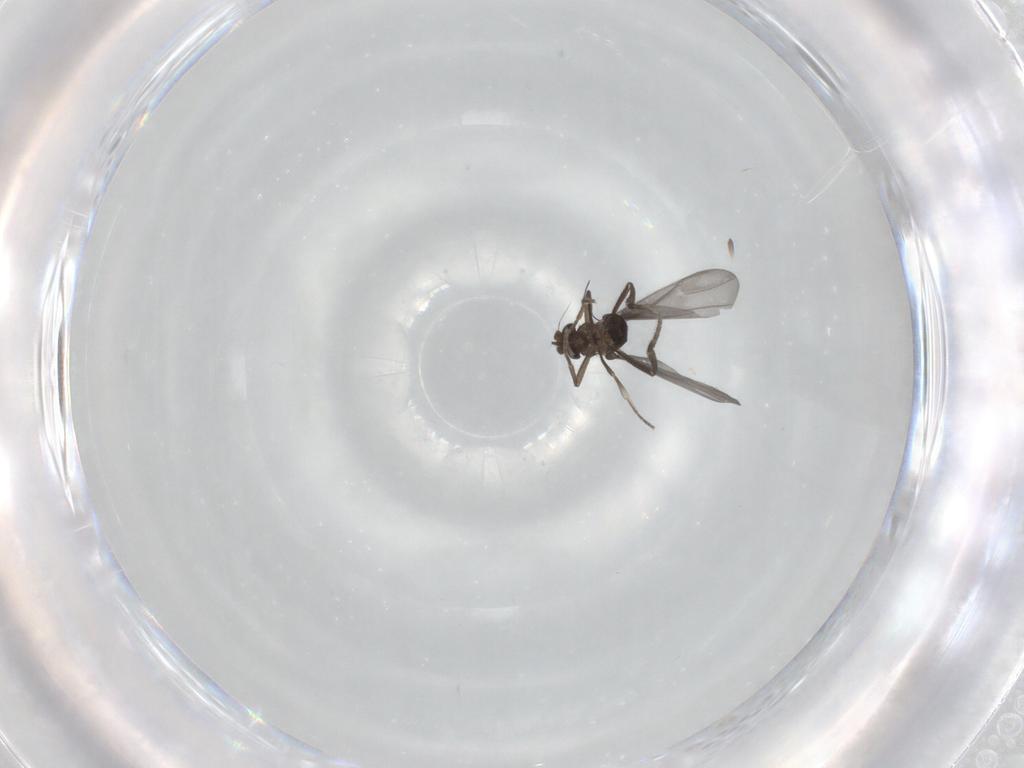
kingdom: Animalia
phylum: Arthropoda
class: Insecta
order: Diptera
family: Phoridae
